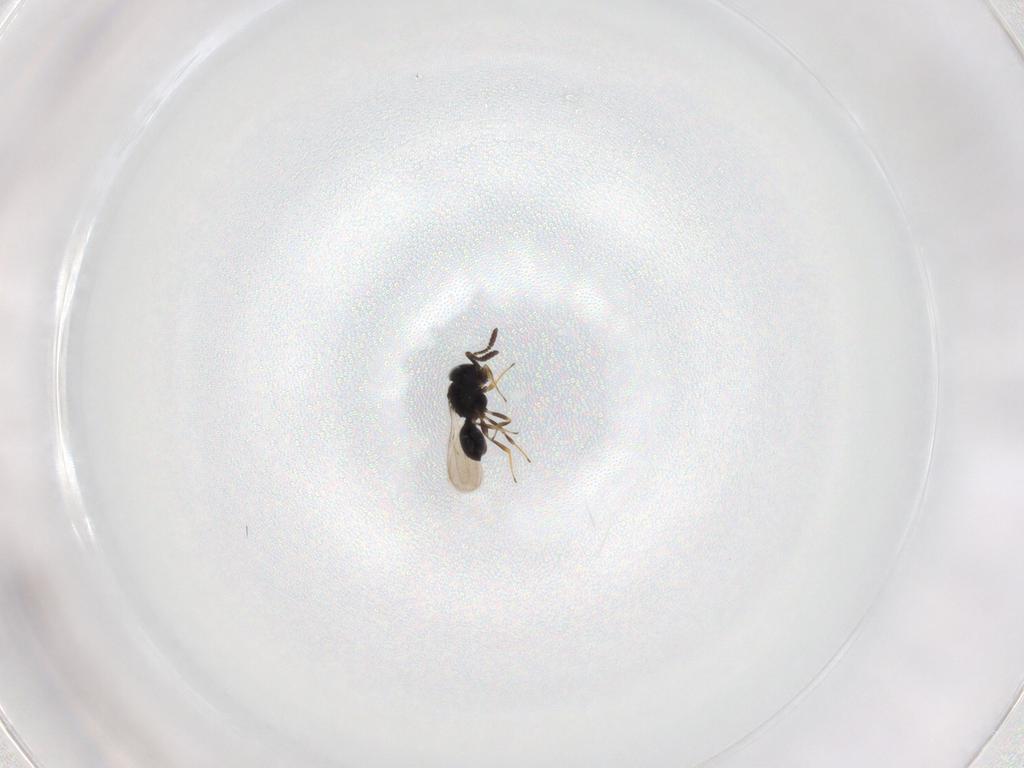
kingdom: Animalia
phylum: Arthropoda
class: Insecta
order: Hymenoptera
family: Scelionidae
